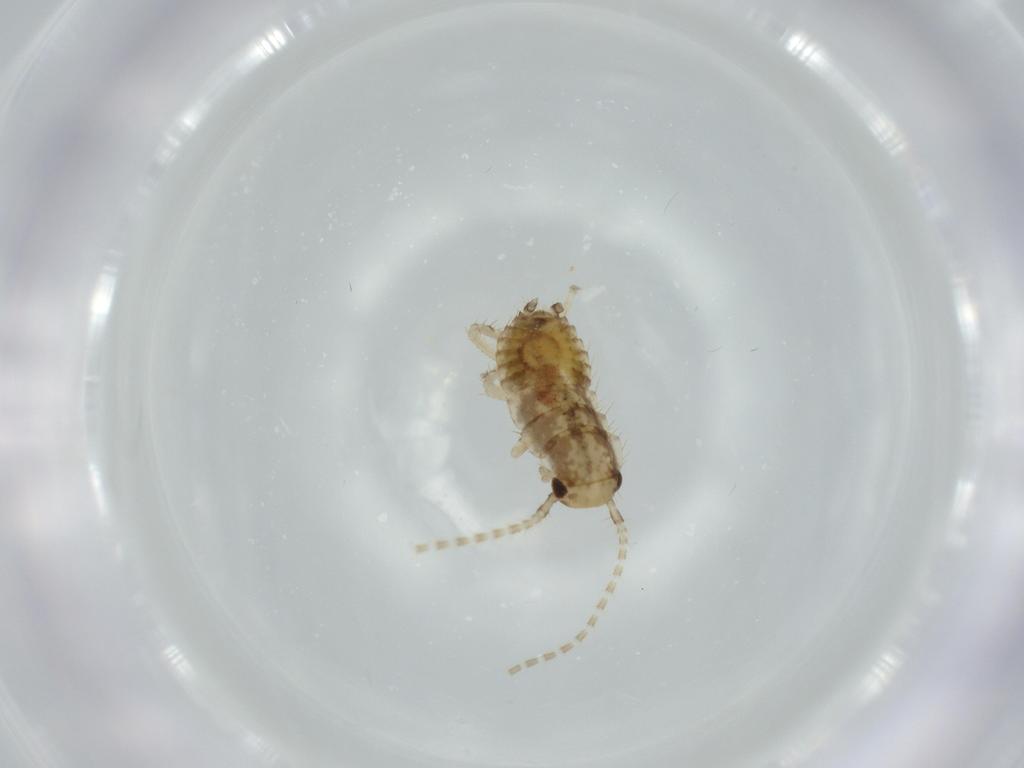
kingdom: Animalia
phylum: Arthropoda
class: Insecta
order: Blattodea
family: Ectobiidae
